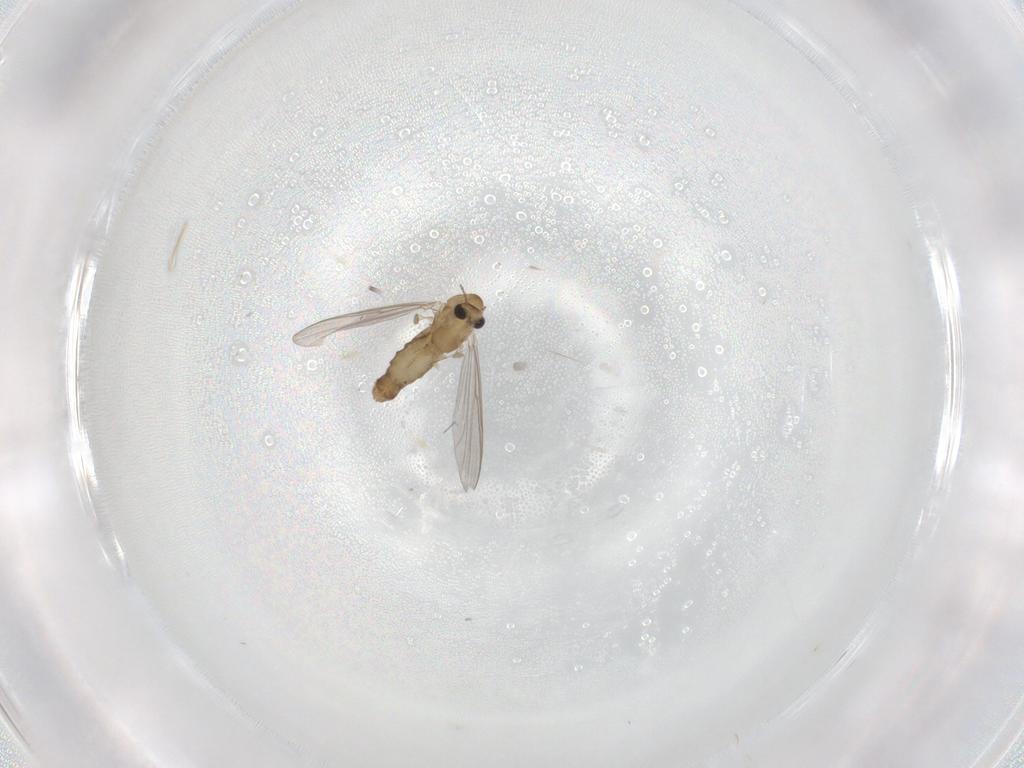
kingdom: Animalia
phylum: Arthropoda
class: Insecta
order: Diptera
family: Chironomidae
